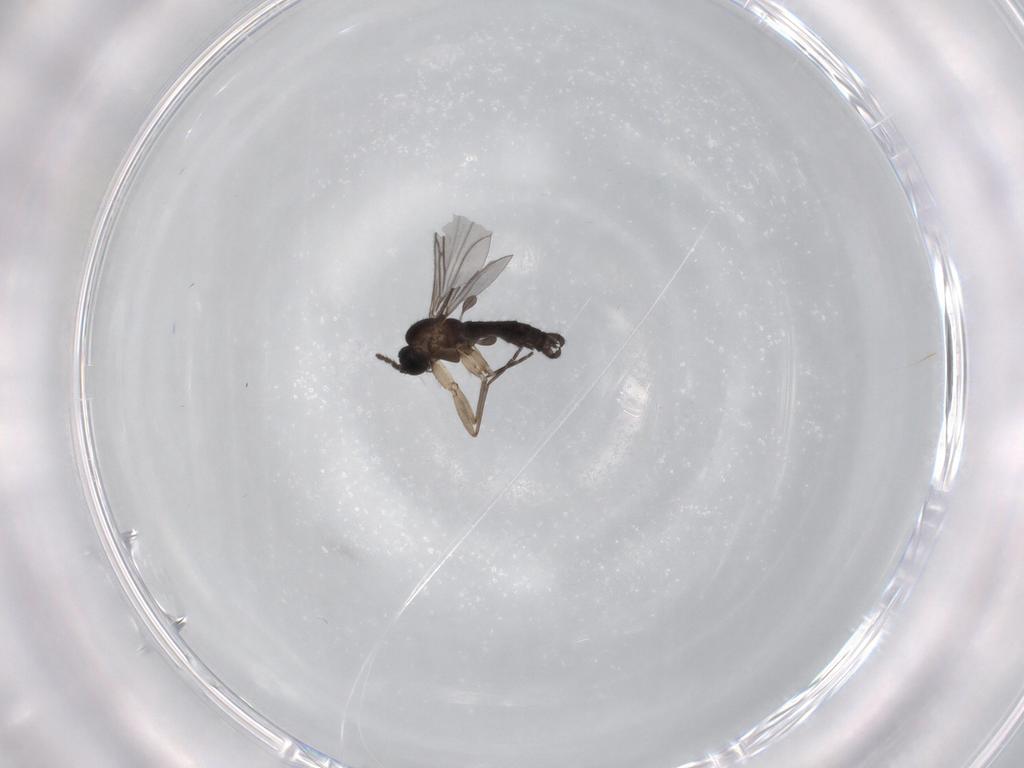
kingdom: Animalia
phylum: Arthropoda
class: Insecta
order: Diptera
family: Sciaridae
